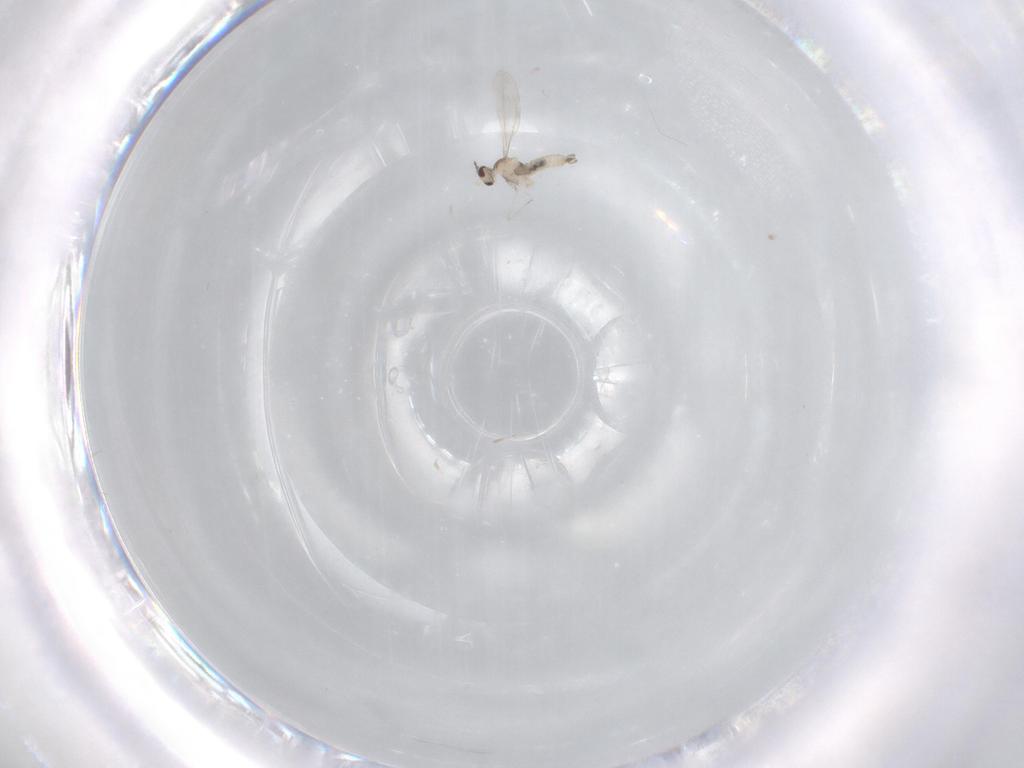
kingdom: Animalia
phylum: Arthropoda
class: Insecta
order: Diptera
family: Cecidomyiidae
